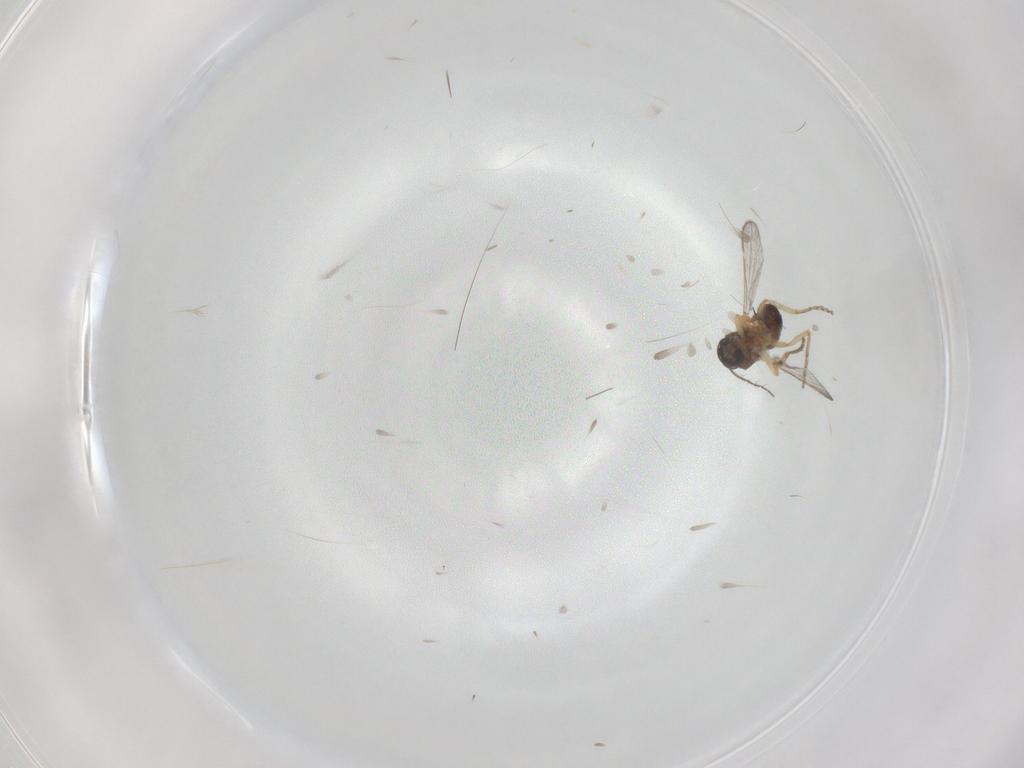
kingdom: Animalia
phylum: Arthropoda
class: Insecta
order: Diptera
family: Ceratopogonidae
